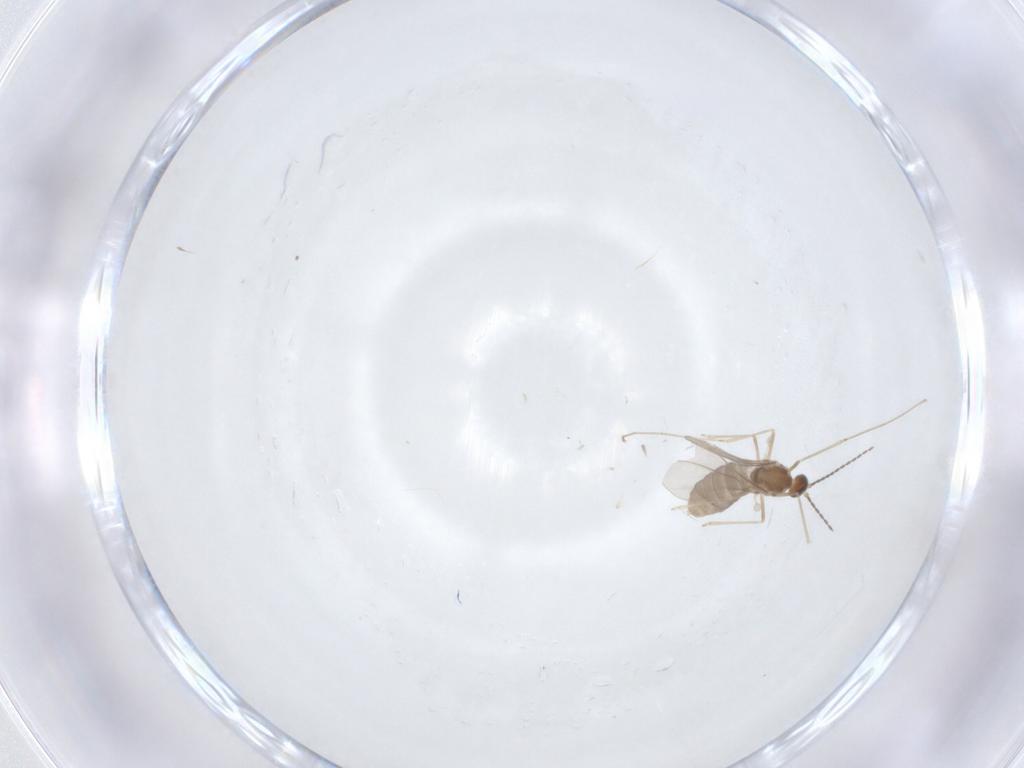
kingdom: Animalia
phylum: Arthropoda
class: Insecta
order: Diptera
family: Cecidomyiidae
